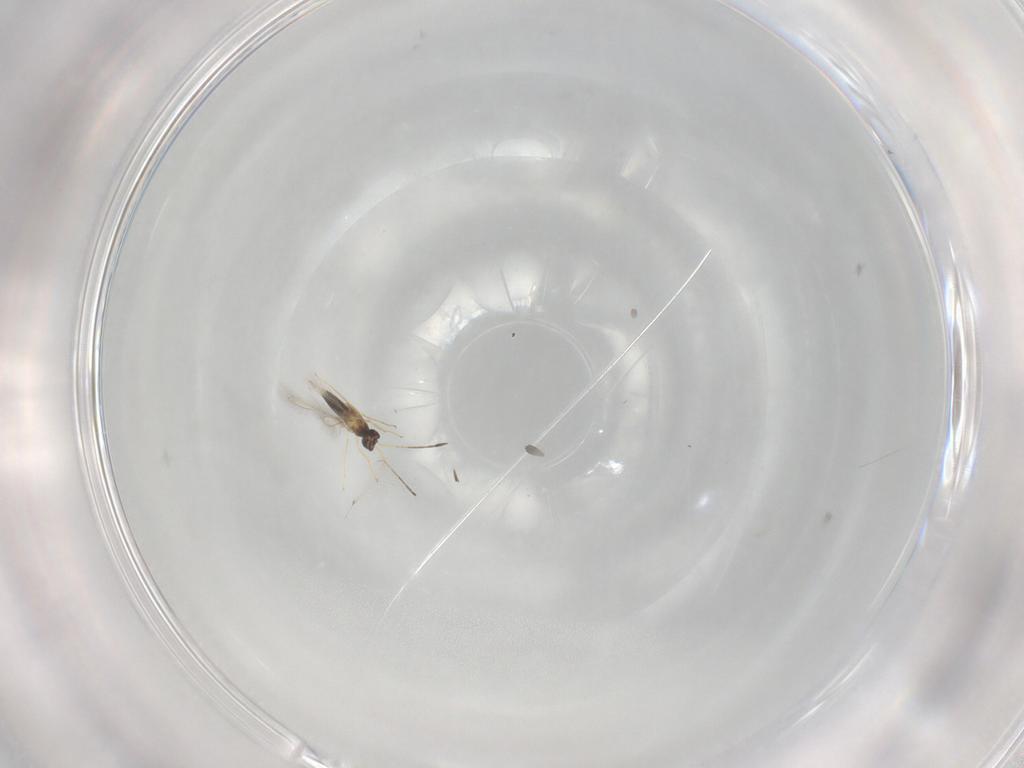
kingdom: Animalia
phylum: Arthropoda
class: Insecta
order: Hymenoptera
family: Mymaridae
